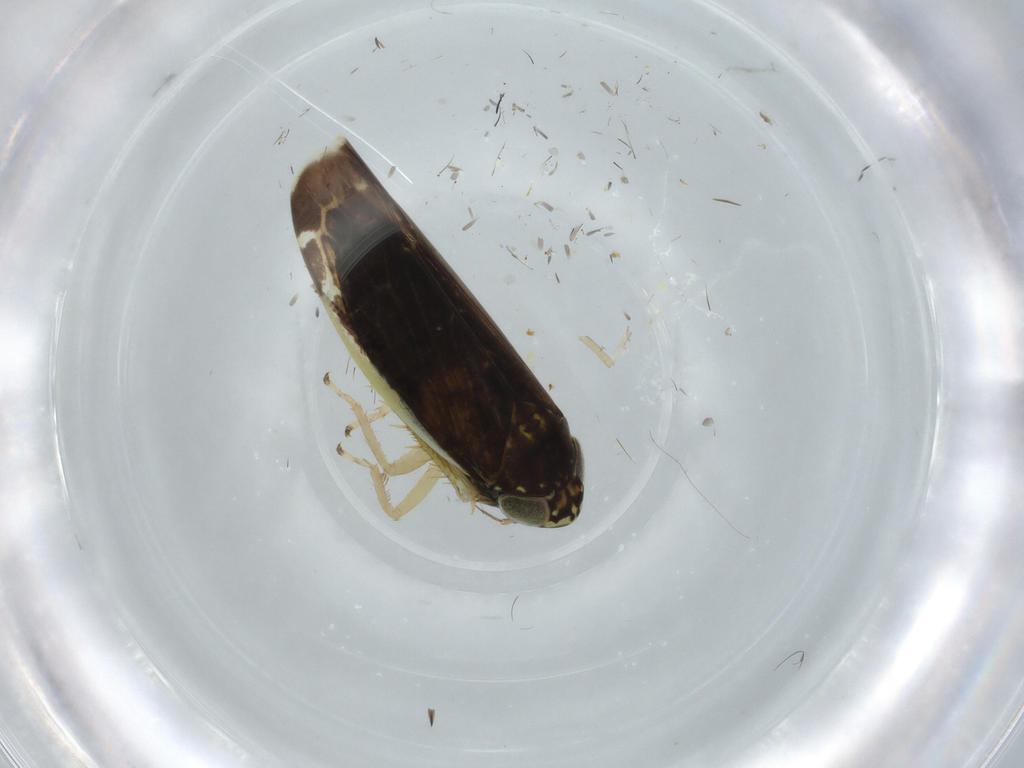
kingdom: Animalia
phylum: Arthropoda
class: Insecta
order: Hemiptera
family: Cicadellidae
